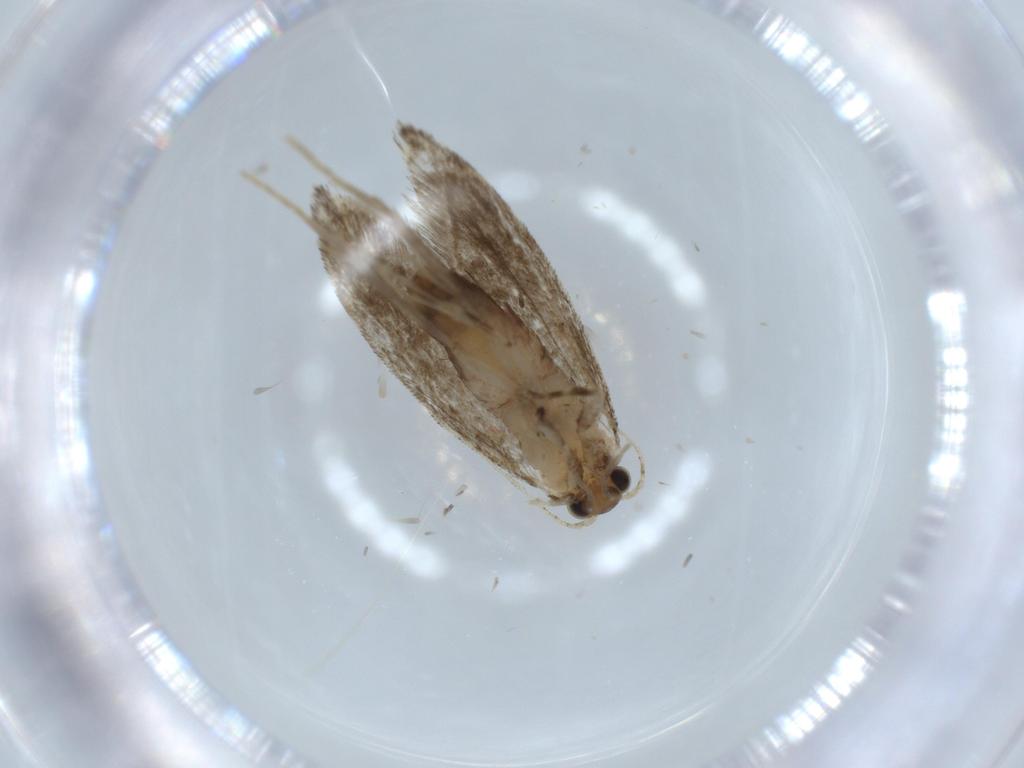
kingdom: Animalia
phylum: Arthropoda
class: Insecta
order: Lepidoptera
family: Tineidae
